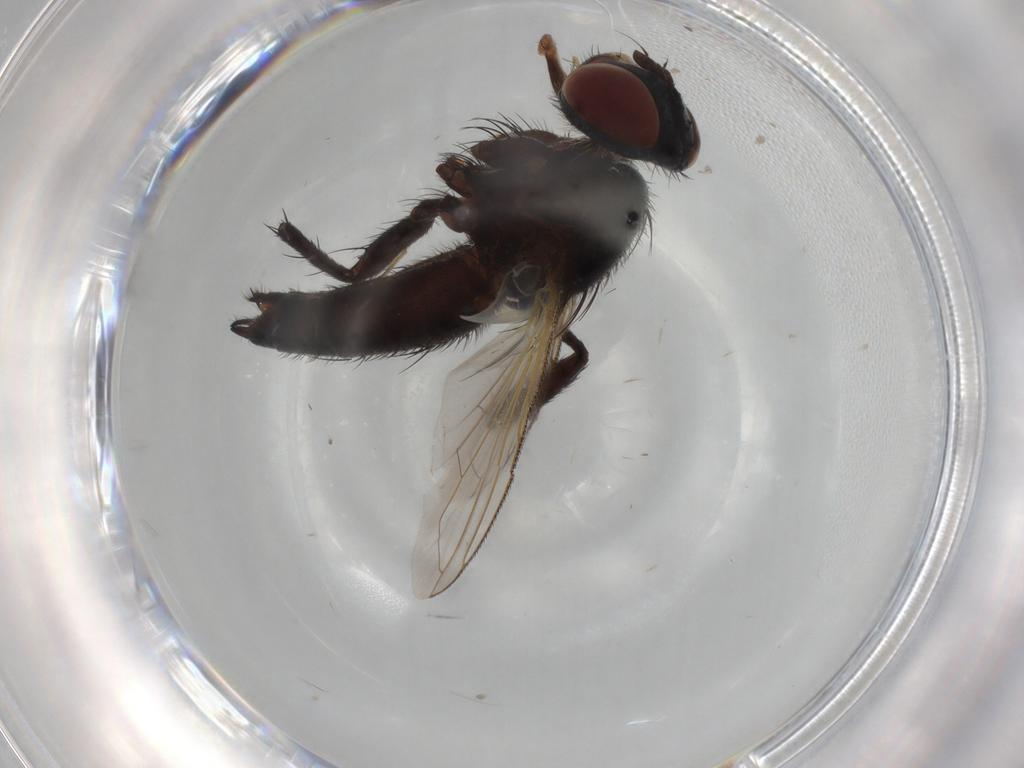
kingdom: Animalia
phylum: Arthropoda
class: Insecta
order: Diptera
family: Tachinidae
